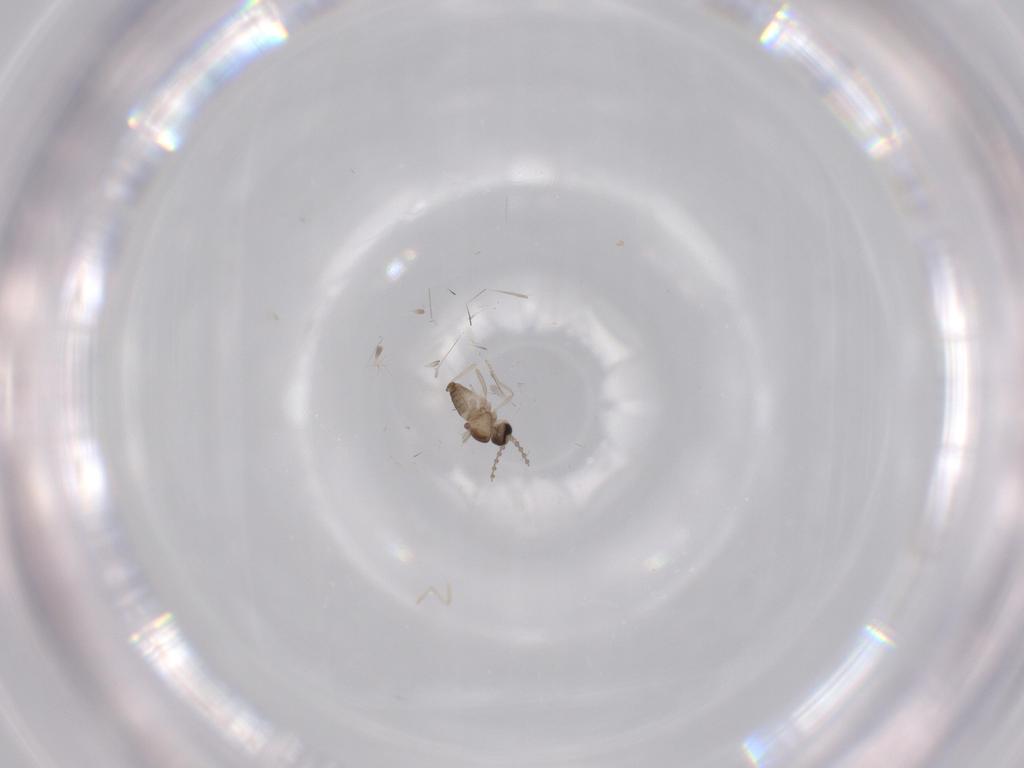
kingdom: Animalia
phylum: Arthropoda
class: Insecta
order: Diptera
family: Cecidomyiidae
